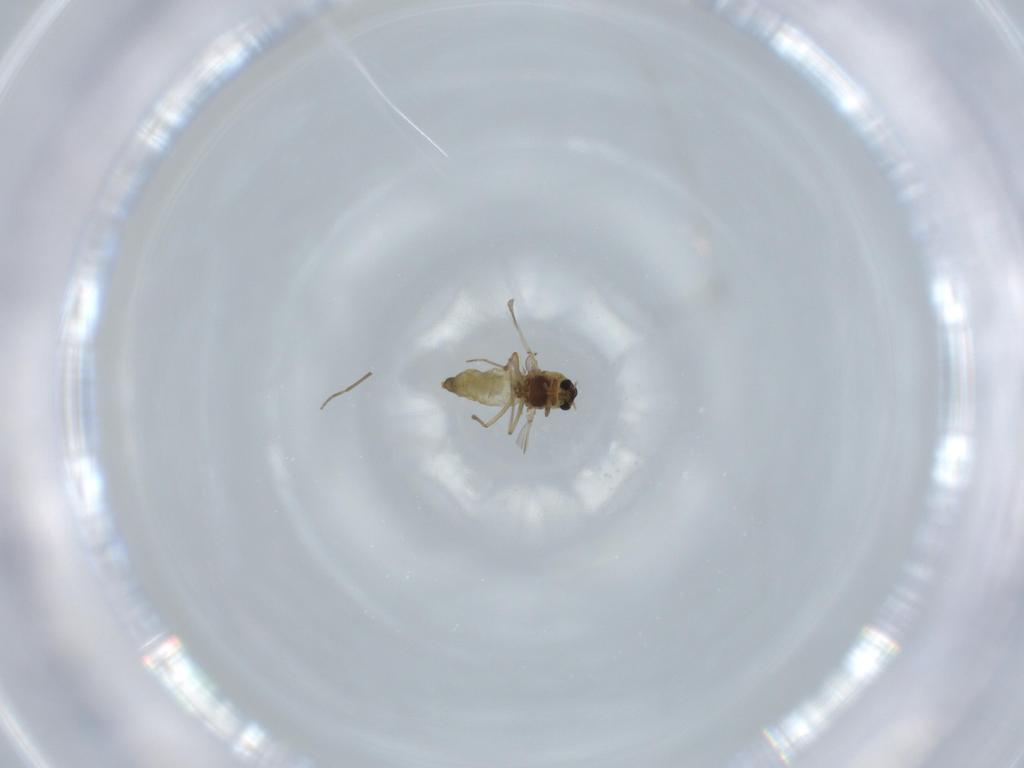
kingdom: Animalia
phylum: Arthropoda
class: Insecta
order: Diptera
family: Chironomidae
